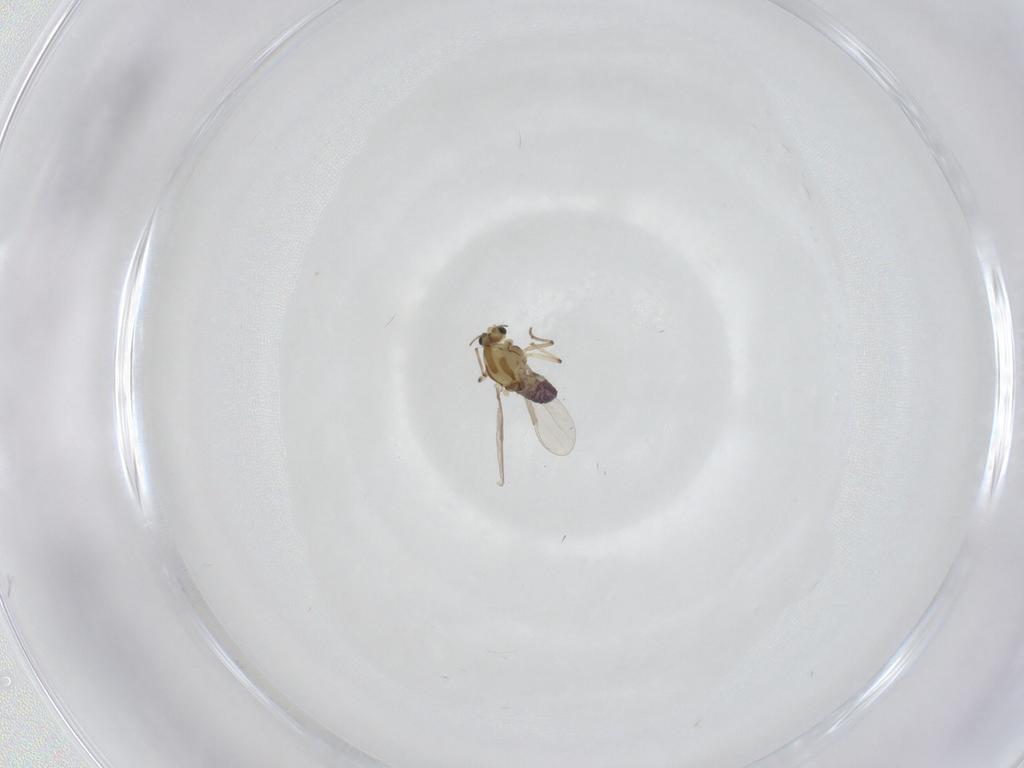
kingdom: Animalia
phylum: Arthropoda
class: Insecta
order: Diptera
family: Chironomidae
